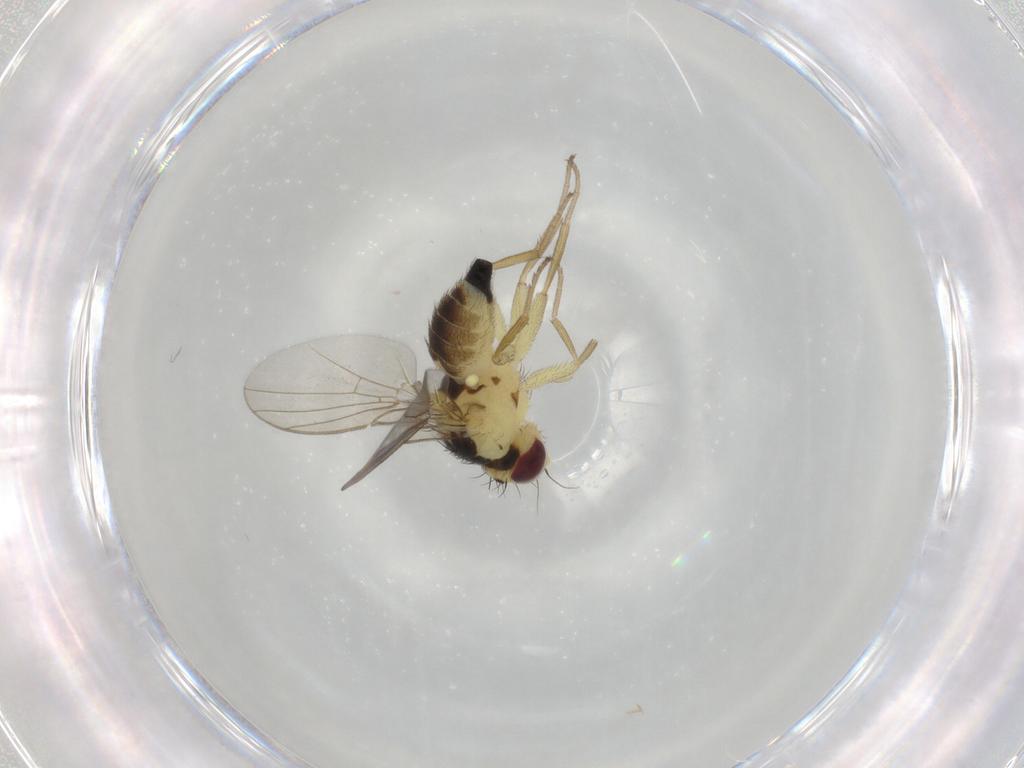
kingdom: Animalia
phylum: Arthropoda
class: Insecta
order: Diptera
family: Agromyzidae
